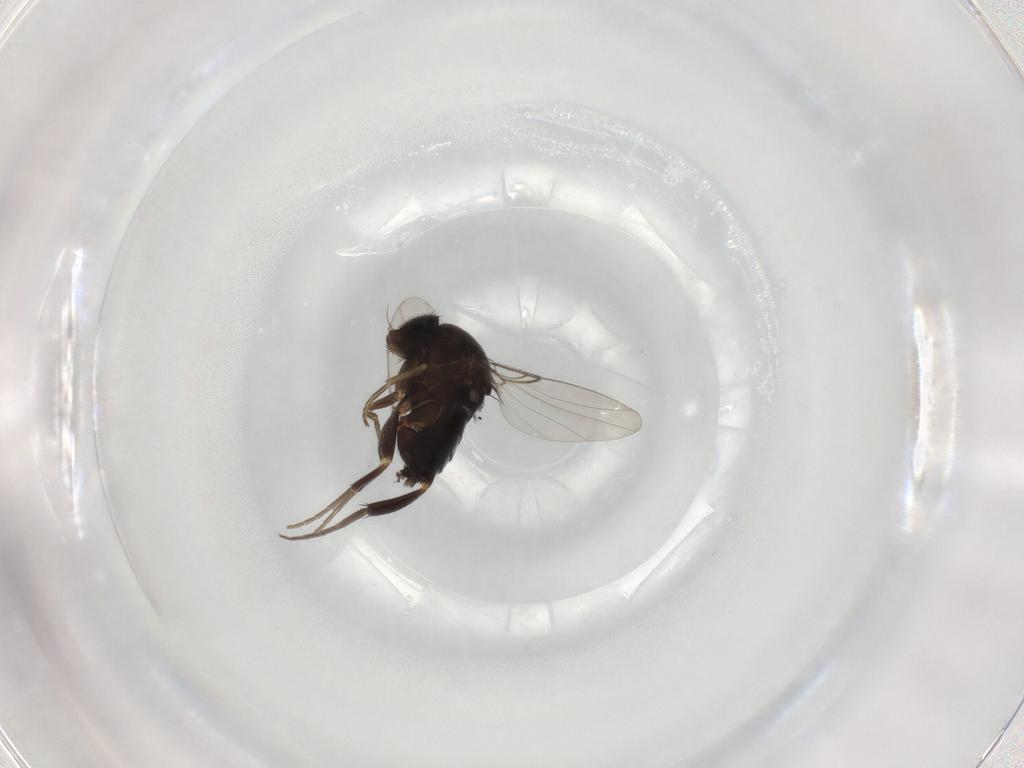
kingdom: Animalia
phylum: Arthropoda
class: Insecta
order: Diptera
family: Phoridae
